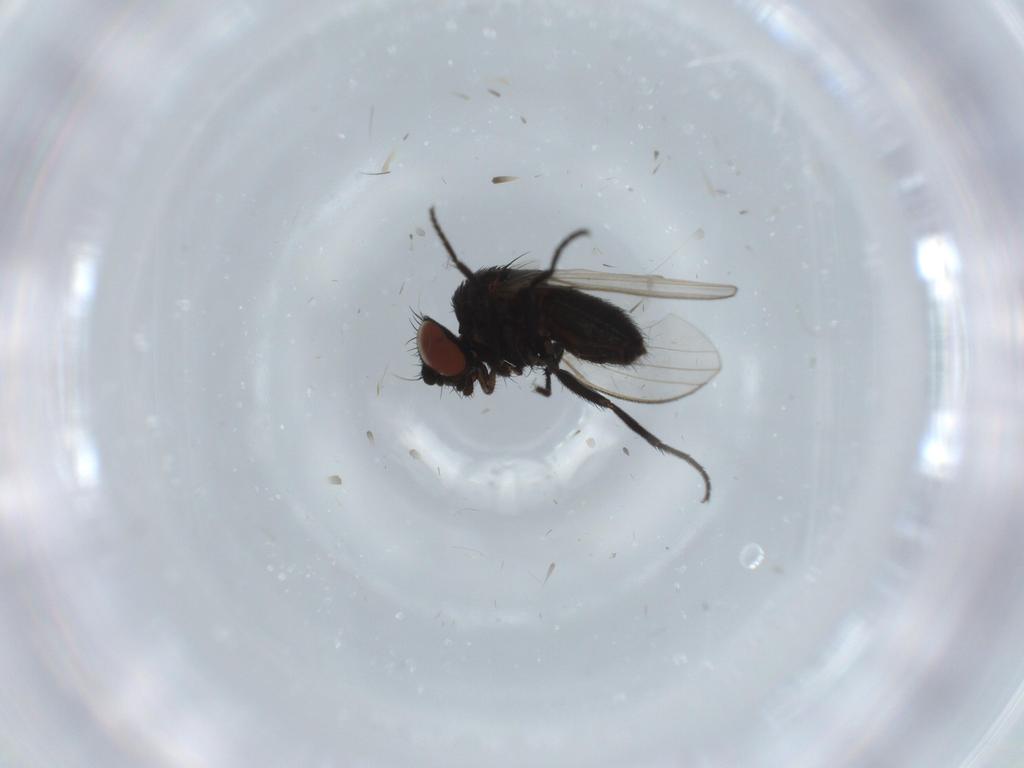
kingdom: Animalia
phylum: Arthropoda
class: Insecta
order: Diptera
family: Milichiidae
